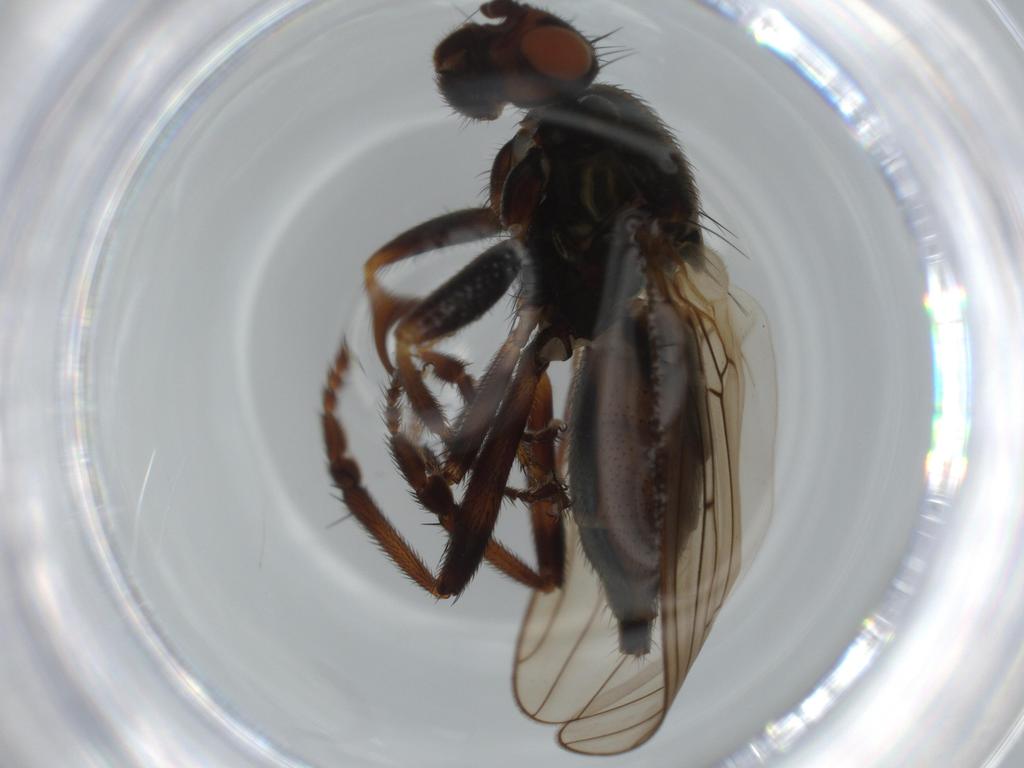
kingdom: Animalia
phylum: Arthropoda
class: Insecta
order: Diptera
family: Sphaeroceridae
